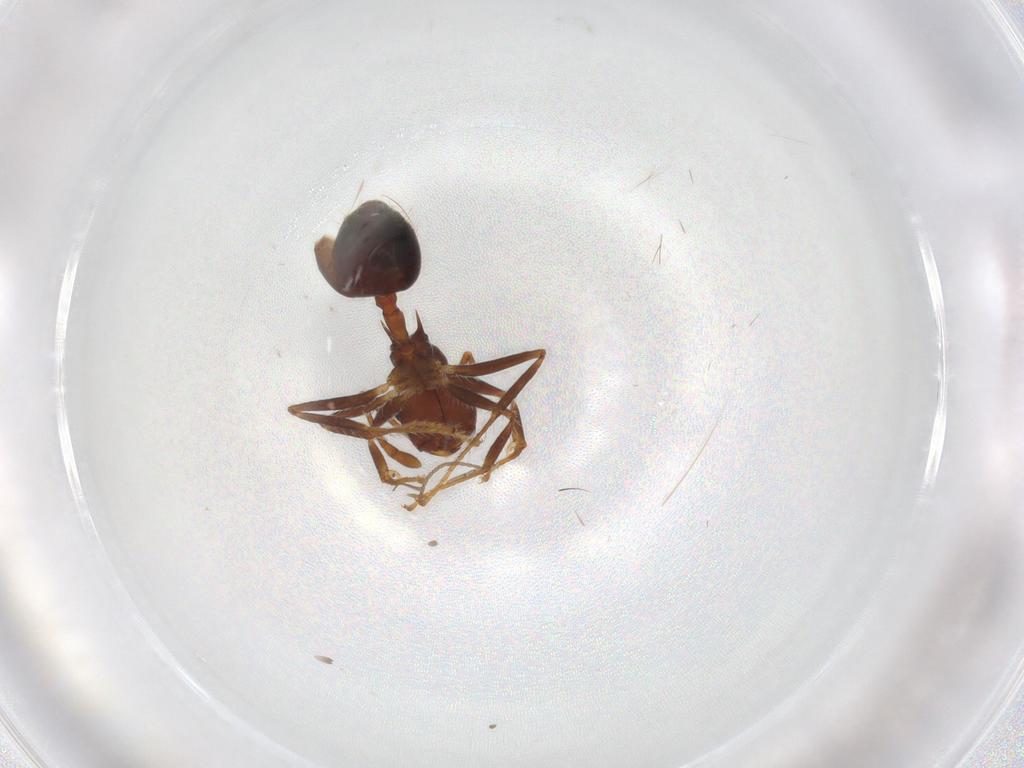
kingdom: Animalia
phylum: Arthropoda
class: Insecta
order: Hymenoptera
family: Formicidae
